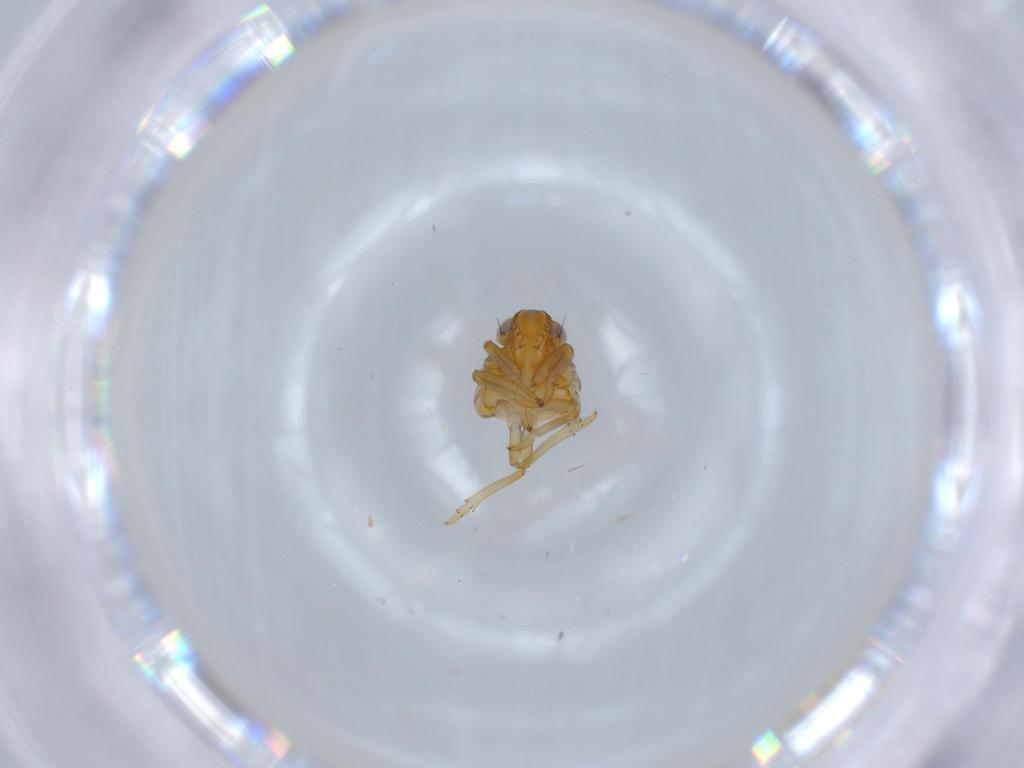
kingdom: Animalia
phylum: Arthropoda
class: Insecta
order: Hemiptera
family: Issidae
